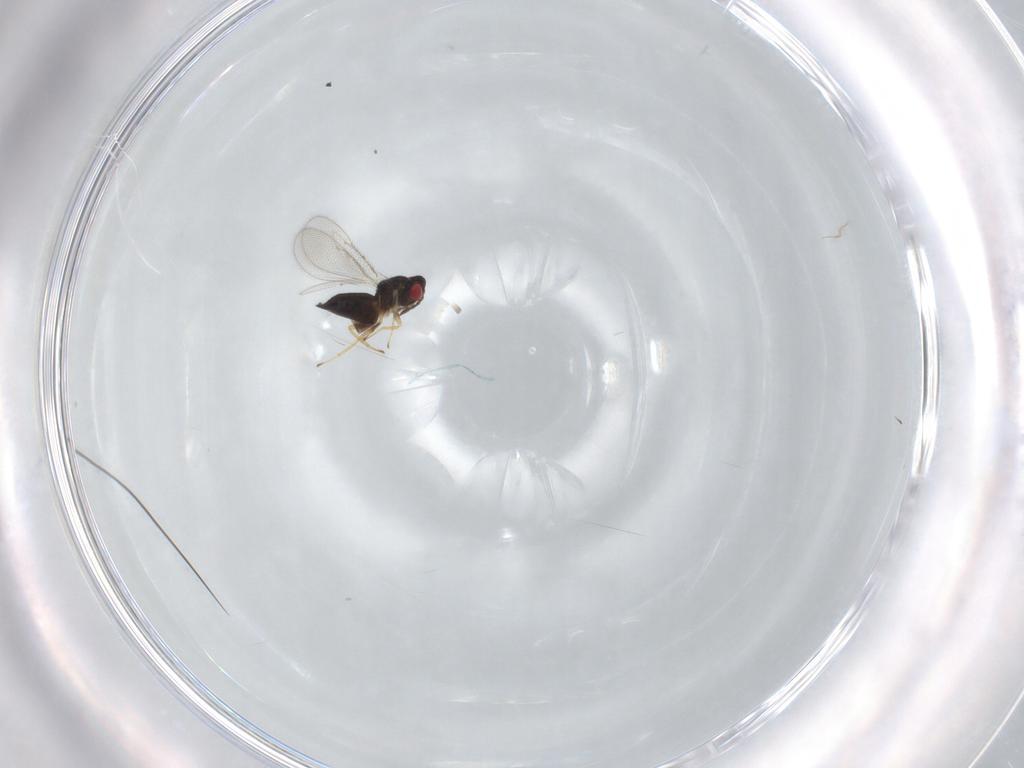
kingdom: Animalia
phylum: Arthropoda
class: Insecta
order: Hymenoptera
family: Eulophidae
